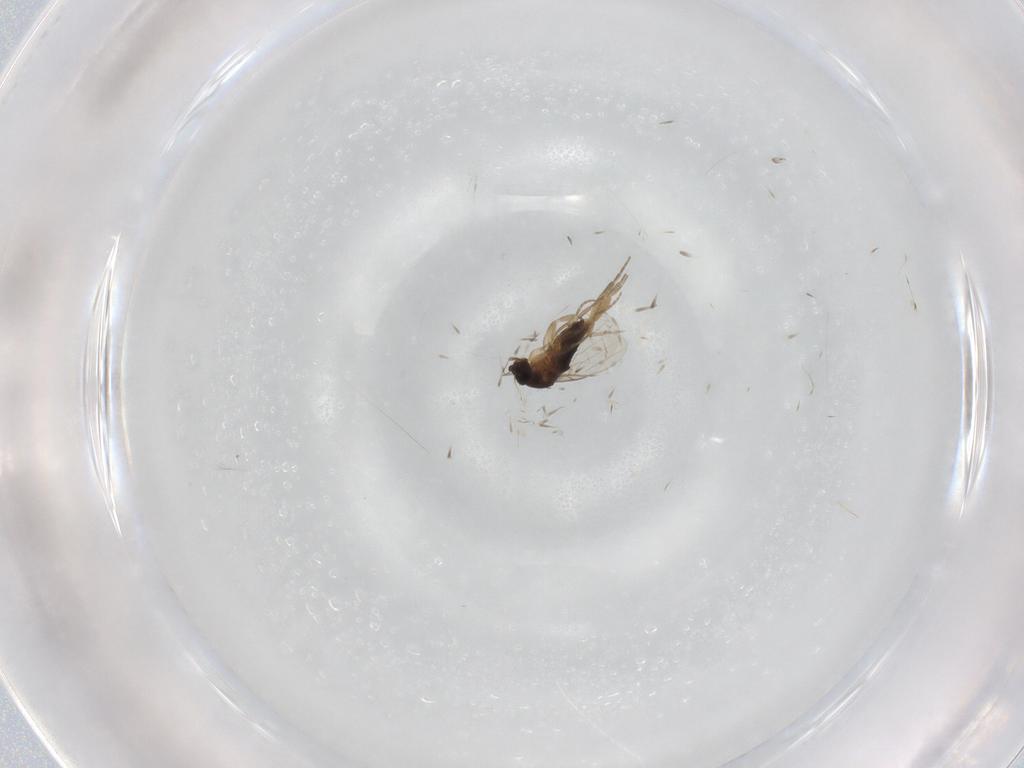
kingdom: Animalia
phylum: Arthropoda
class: Insecta
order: Diptera
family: Phoridae
